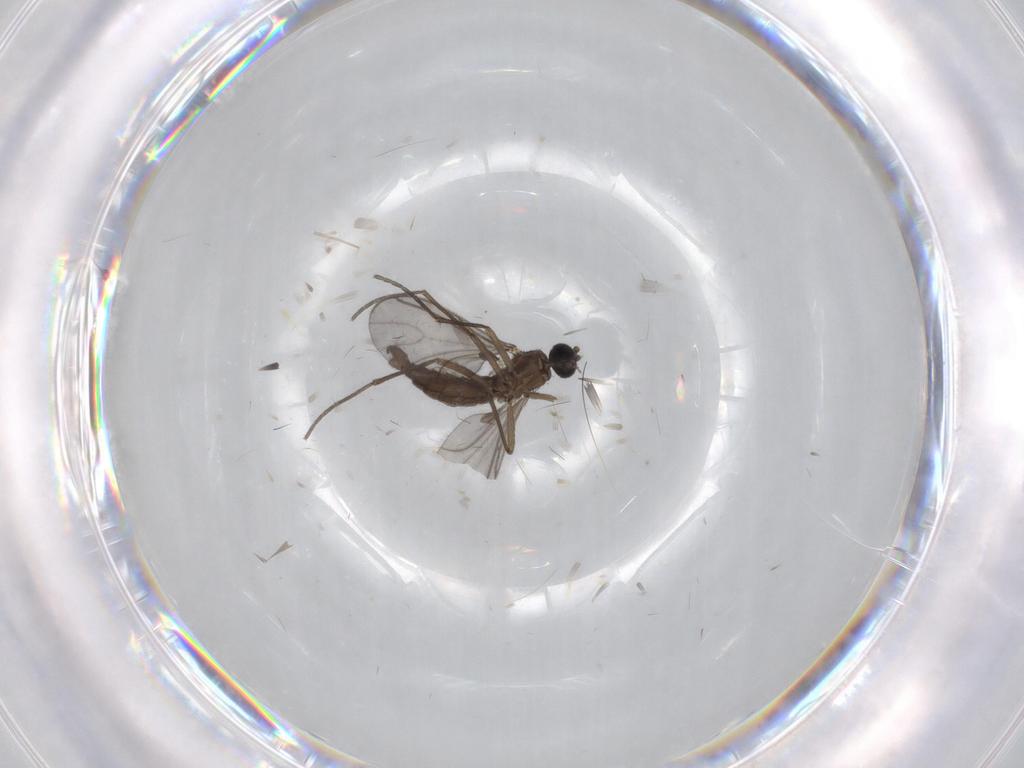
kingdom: Animalia
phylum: Arthropoda
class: Insecta
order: Diptera
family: Sciaridae
